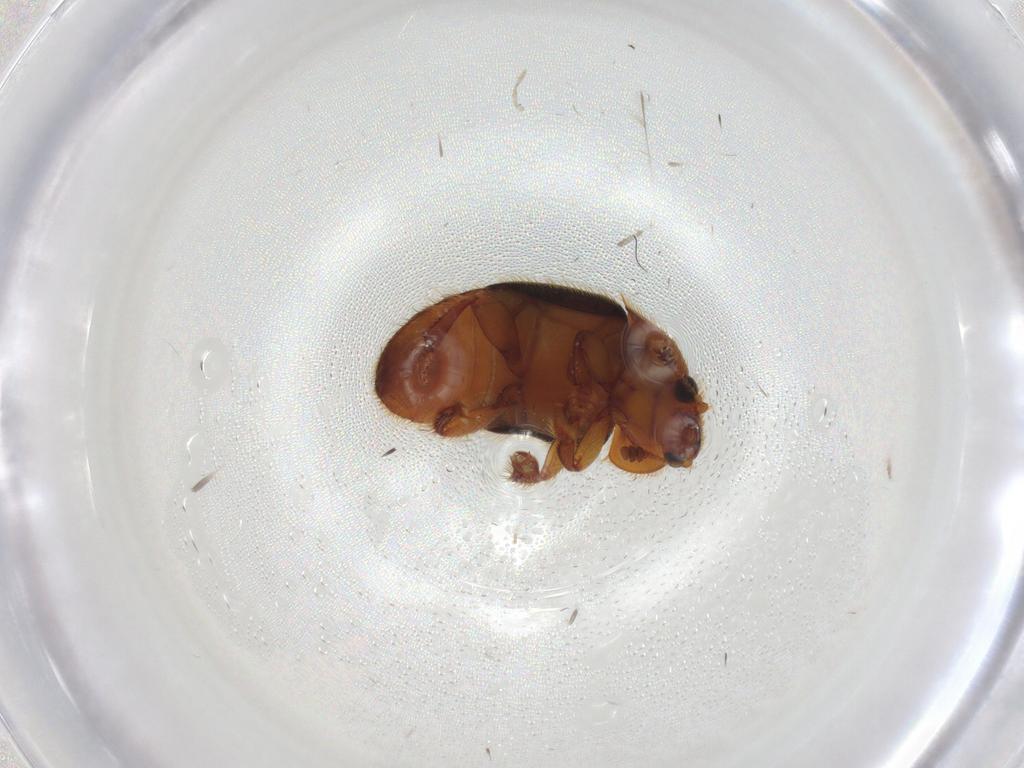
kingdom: Animalia
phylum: Arthropoda
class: Insecta
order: Coleoptera
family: Nitidulidae
